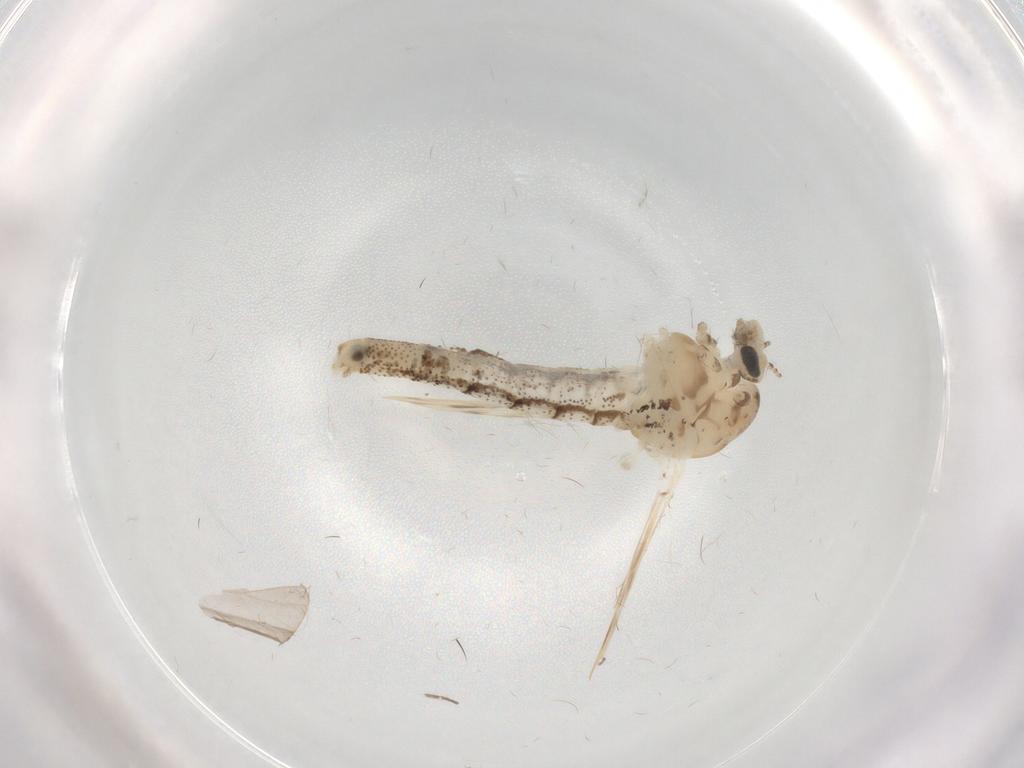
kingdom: Animalia
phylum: Arthropoda
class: Insecta
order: Diptera
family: Chaoboridae
